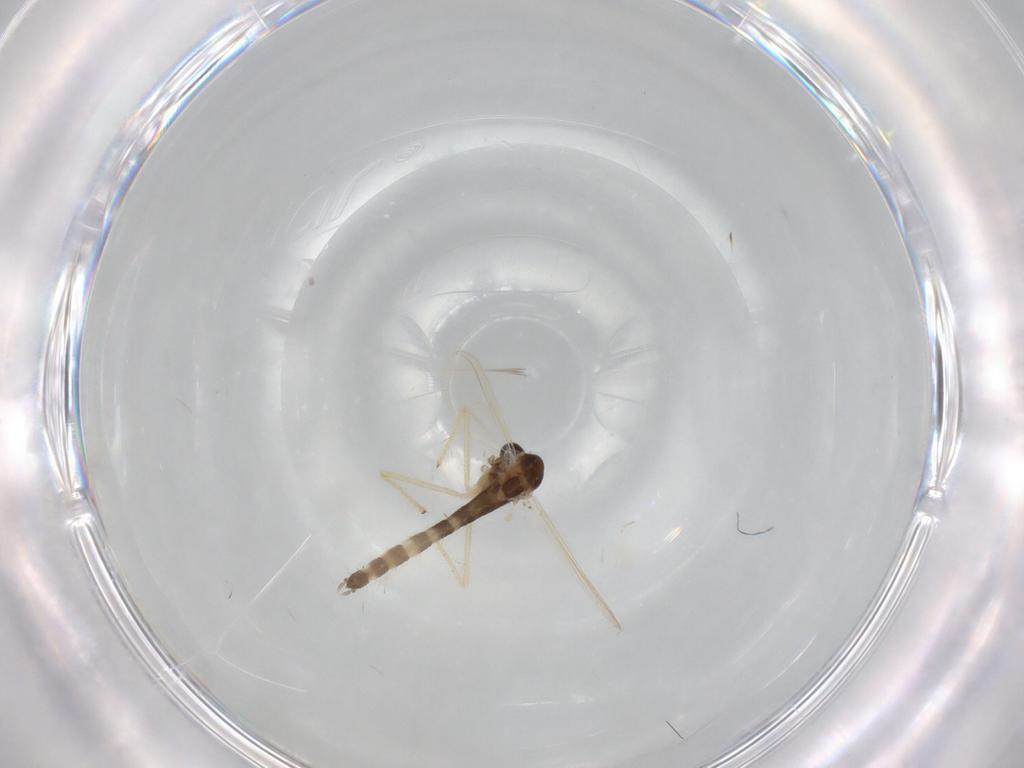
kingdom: Animalia
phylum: Arthropoda
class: Insecta
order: Diptera
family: Chironomidae
